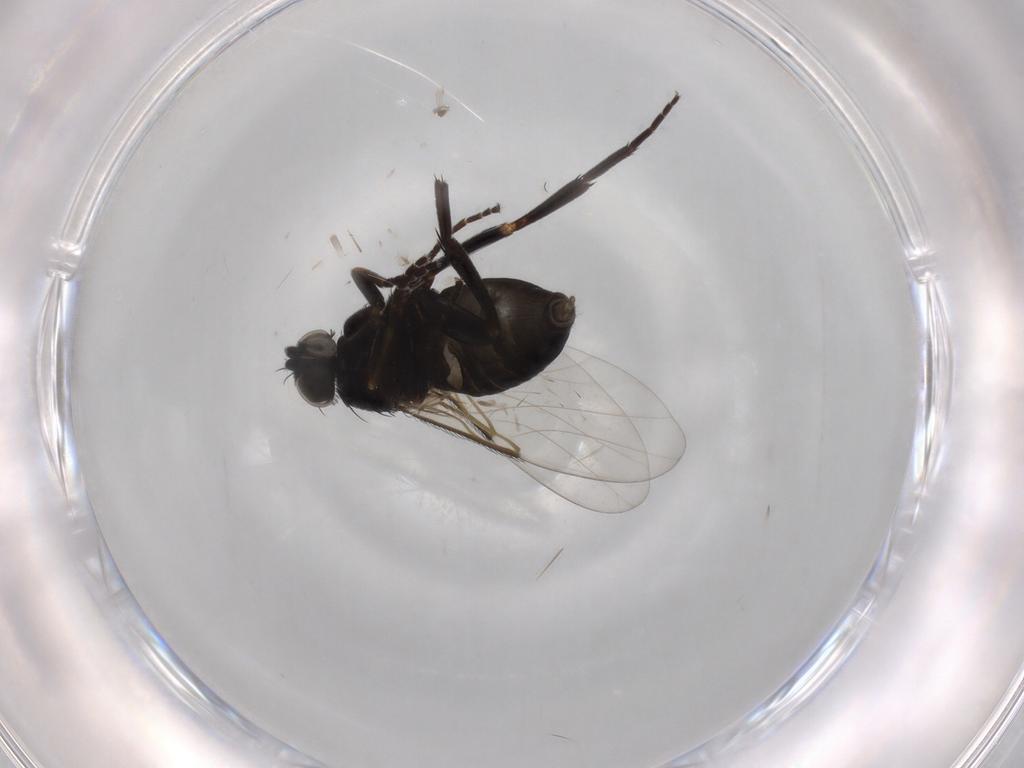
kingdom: Animalia
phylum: Arthropoda
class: Insecta
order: Diptera
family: Phoridae
